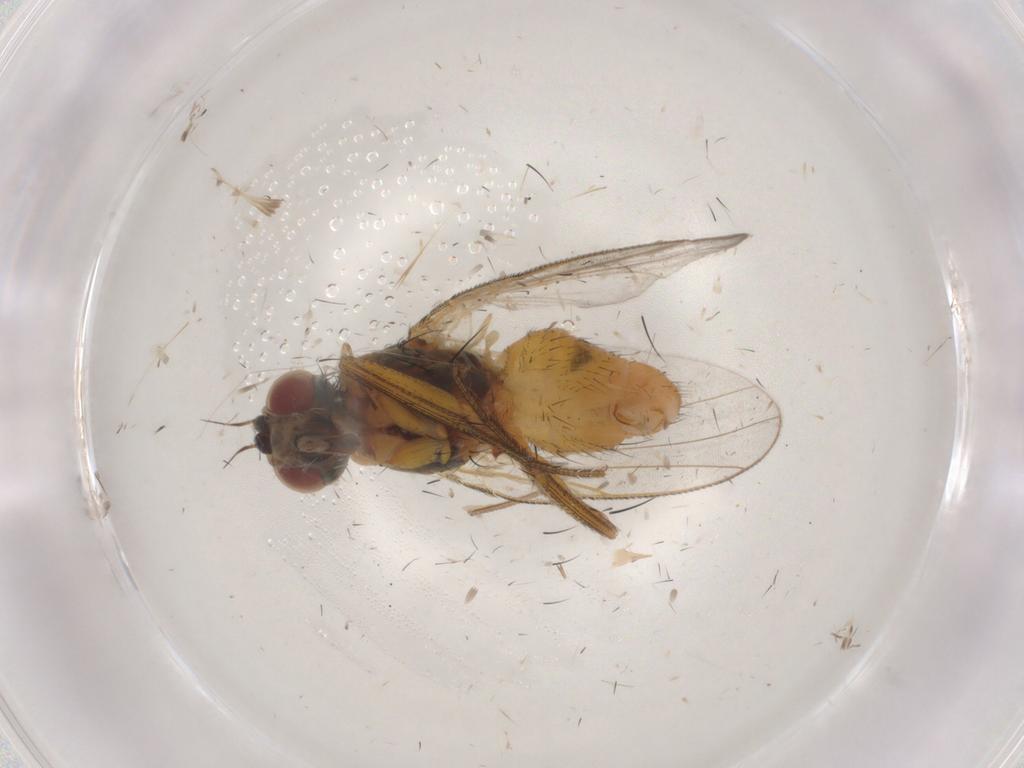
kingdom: Animalia
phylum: Arthropoda
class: Insecta
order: Diptera
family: Muscidae
